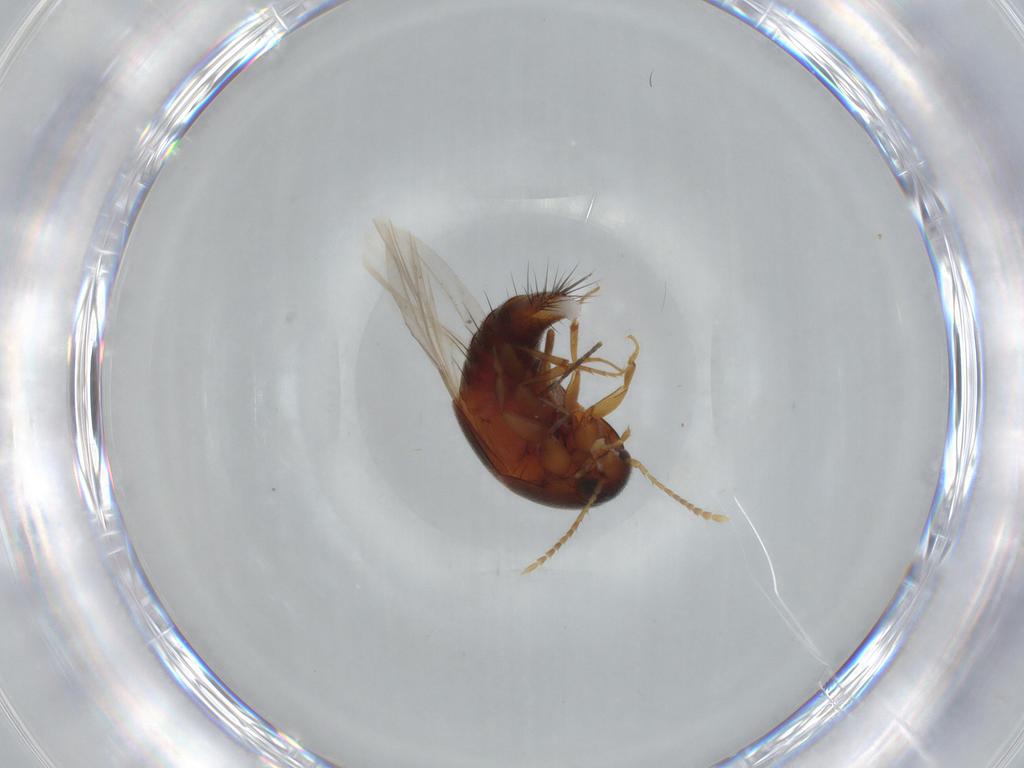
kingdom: Animalia
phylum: Arthropoda
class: Insecta
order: Coleoptera
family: Staphylinidae
